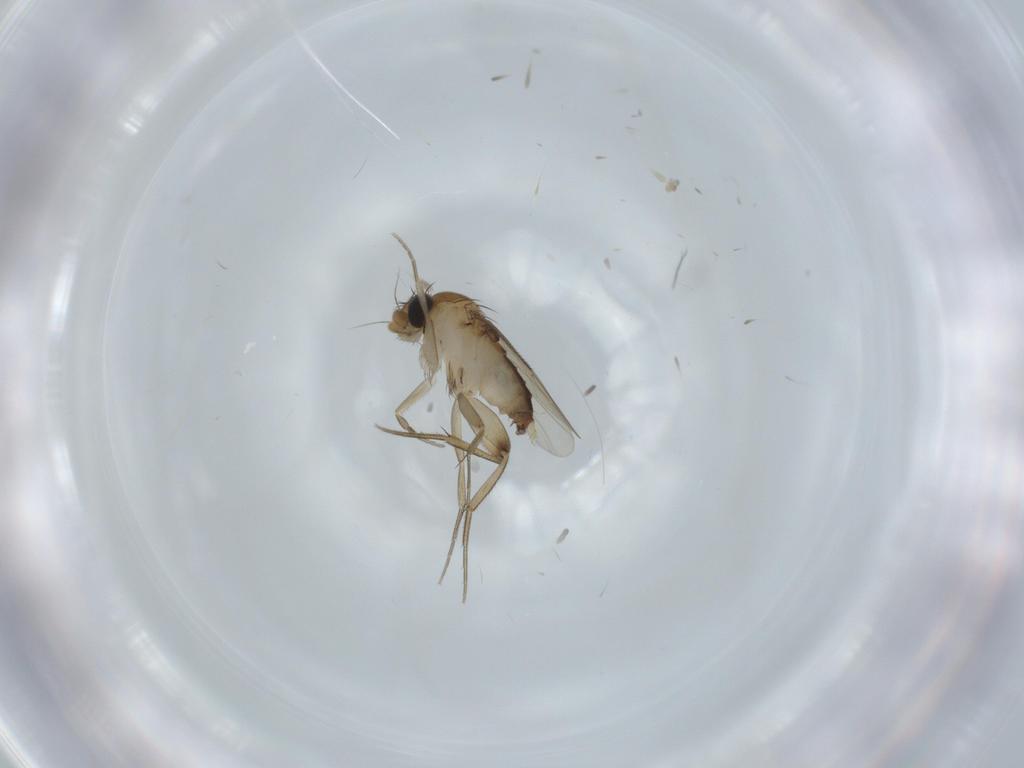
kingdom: Animalia
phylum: Arthropoda
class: Insecta
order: Diptera
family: Phoridae
